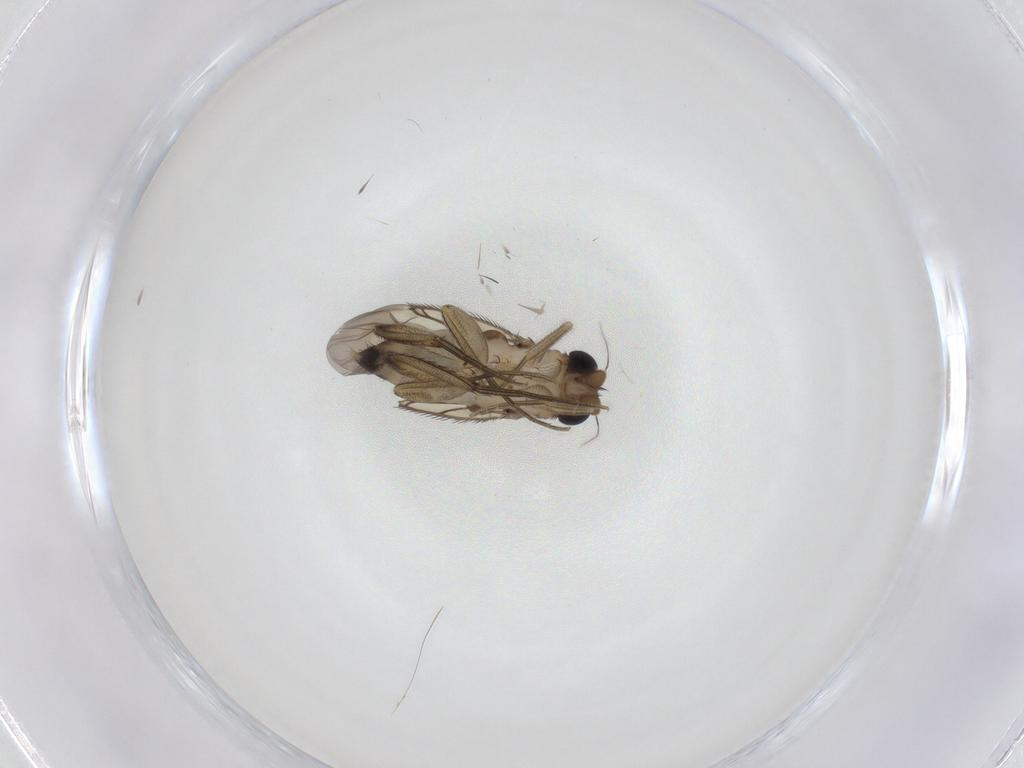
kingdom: Animalia
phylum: Arthropoda
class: Insecta
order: Diptera
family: Phoridae
